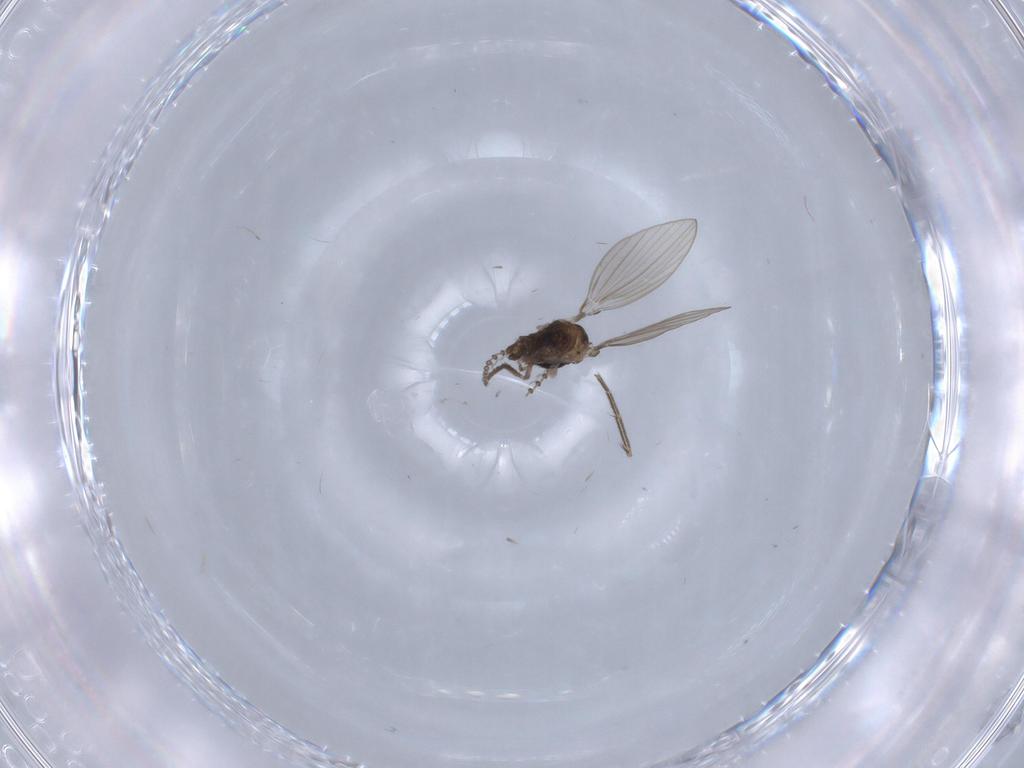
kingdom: Animalia
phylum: Arthropoda
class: Insecta
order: Diptera
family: Psychodidae
